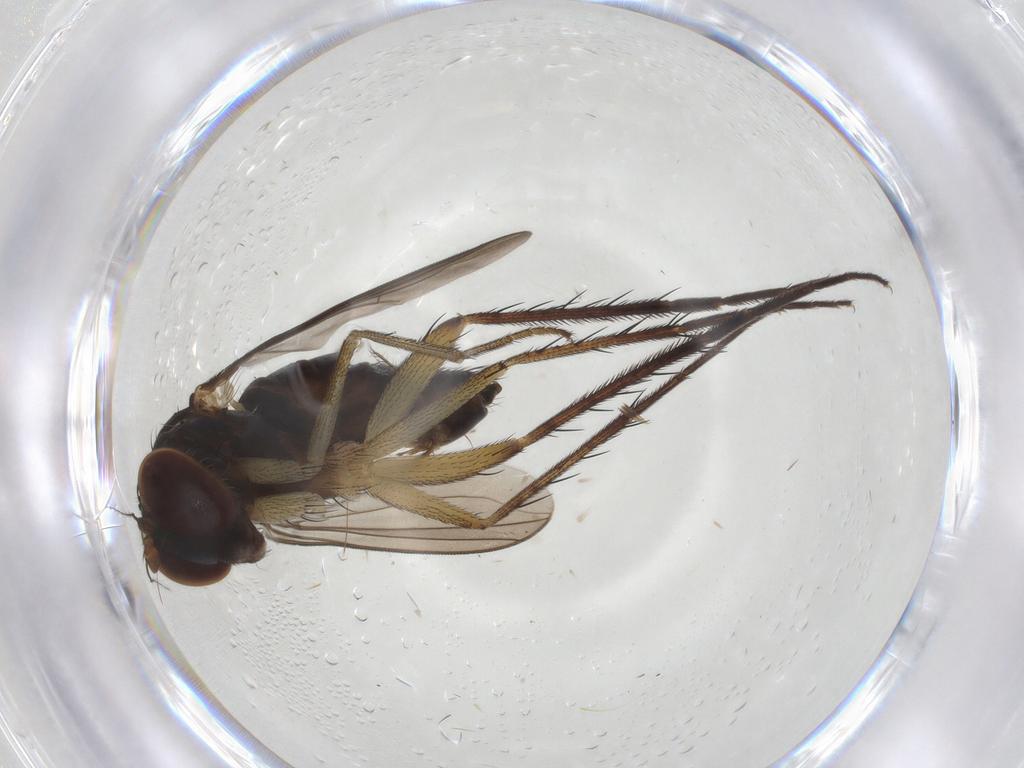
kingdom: Animalia
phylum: Arthropoda
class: Insecta
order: Diptera
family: Dolichopodidae
